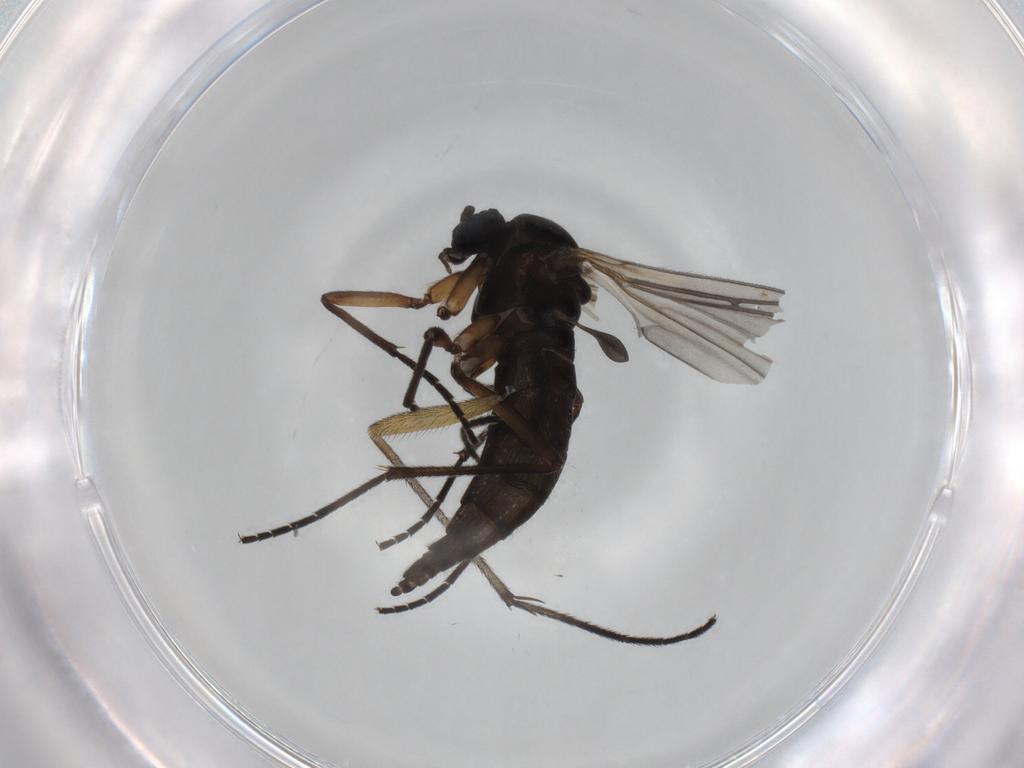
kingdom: Animalia
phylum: Arthropoda
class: Insecta
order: Diptera
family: Sciaridae
